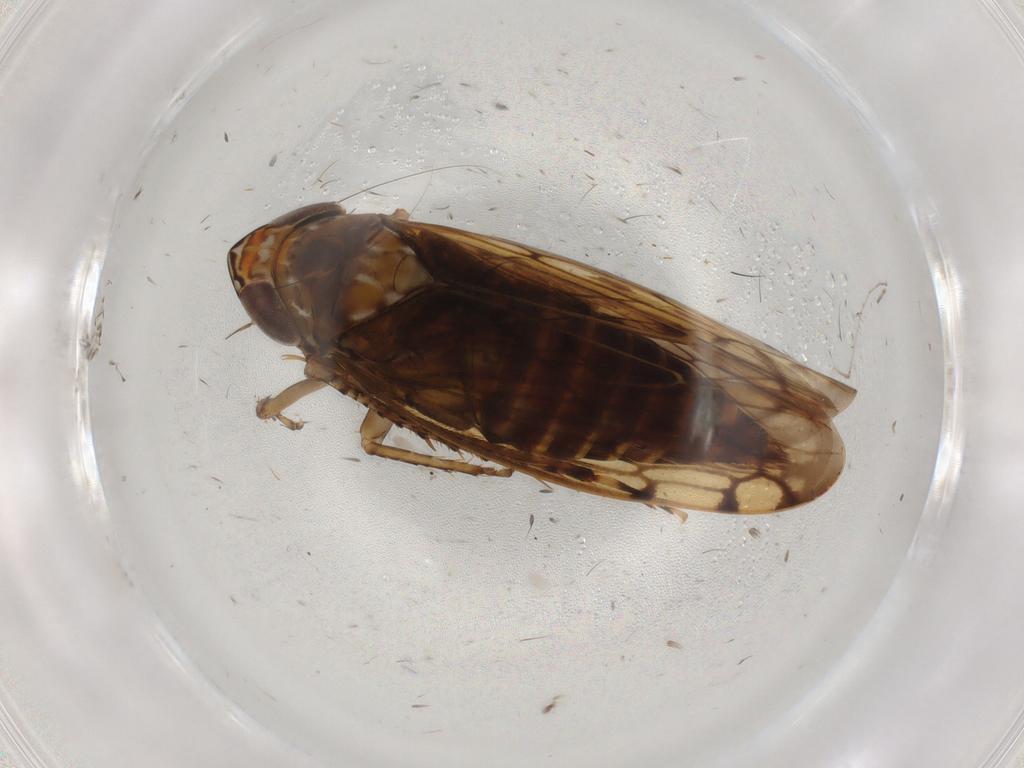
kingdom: Animalia
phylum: Arthropoda
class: Insecta
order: Hemiptera
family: Cicadellidae
